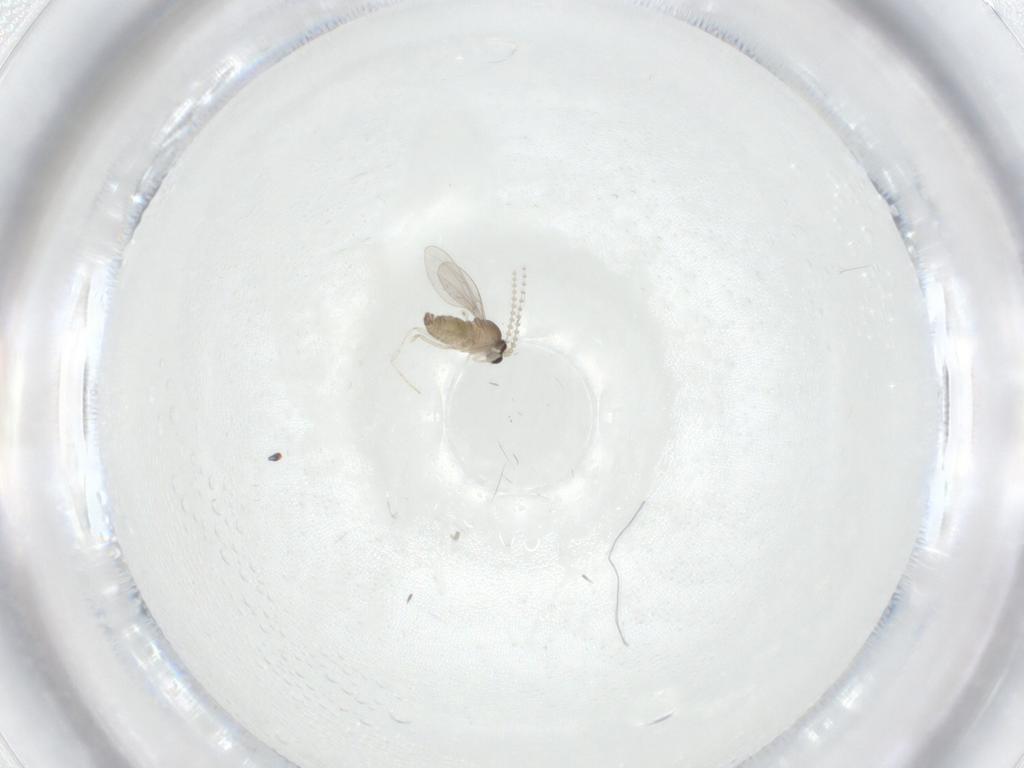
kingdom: Animalia
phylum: Arthropoda
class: Insecta
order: Diptera
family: Cecidomyiidae
